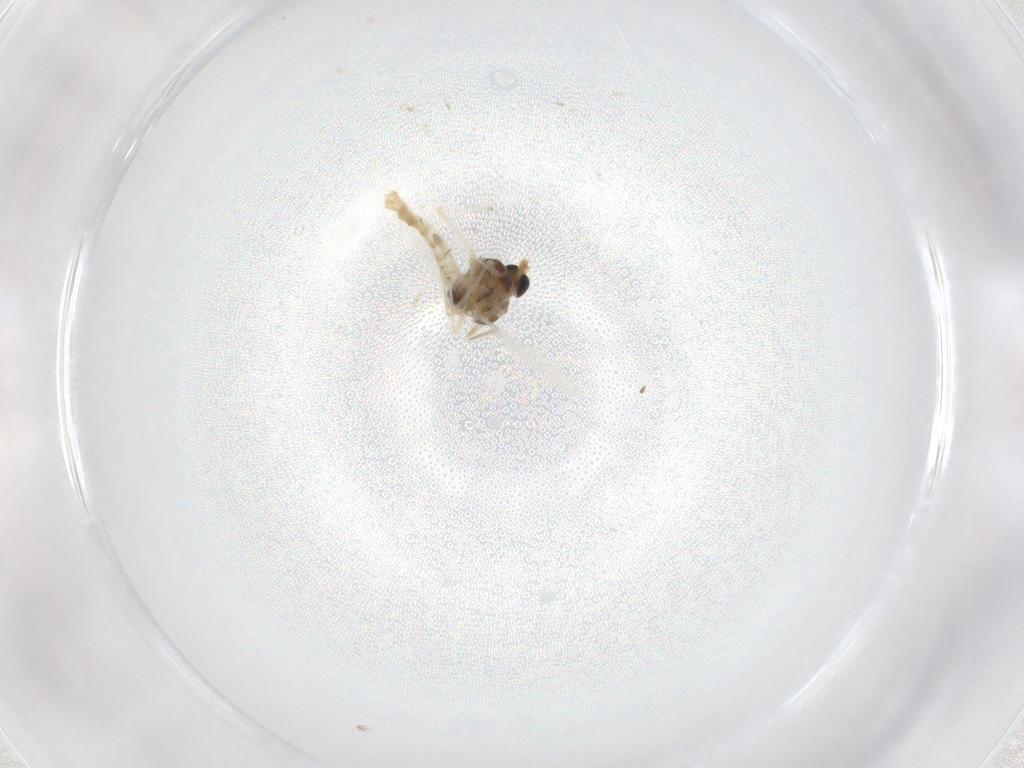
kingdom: Animalia
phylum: Arthropoda
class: Insecta
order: Diptera
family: Chironomidae
